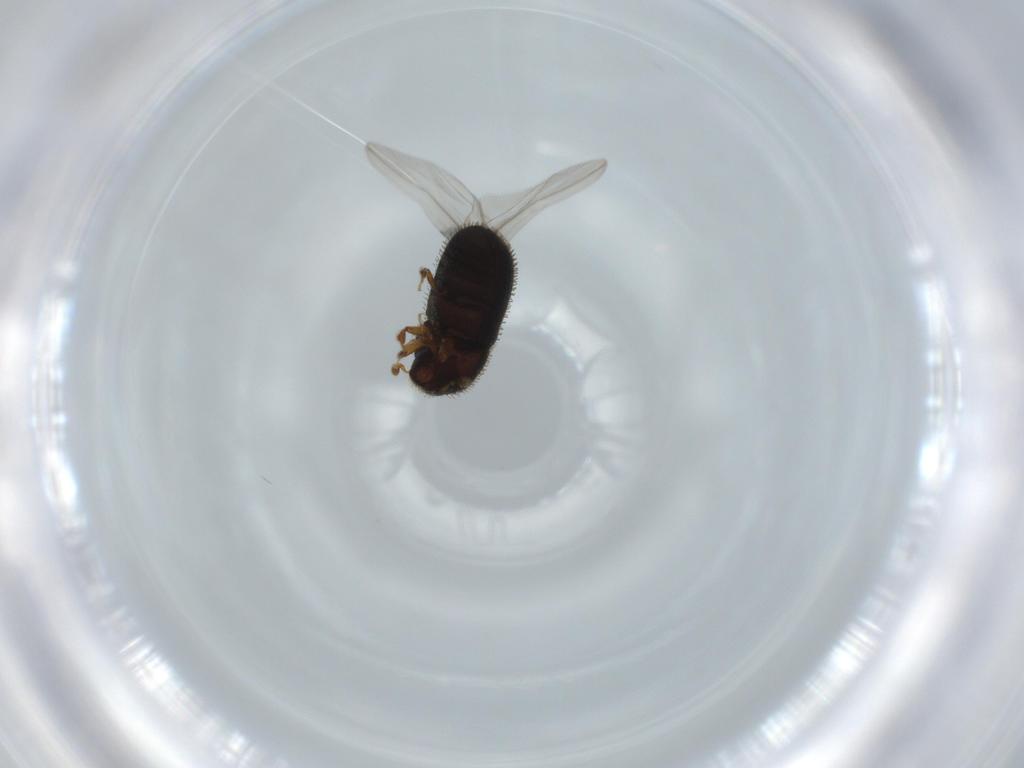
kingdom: Animalia
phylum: Arthropoda
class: Insecta
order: Coleoptera
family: Curculionidae
